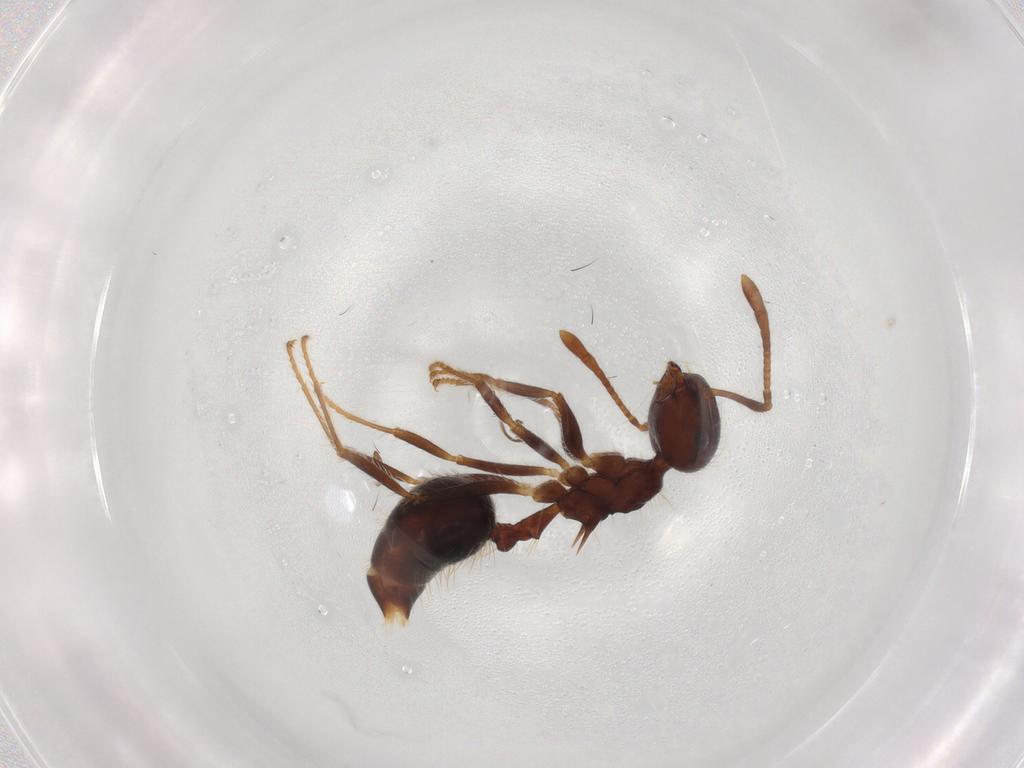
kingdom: Animalia
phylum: Arthropoda
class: Insecta
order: Hymenoptera
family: Formicidae
